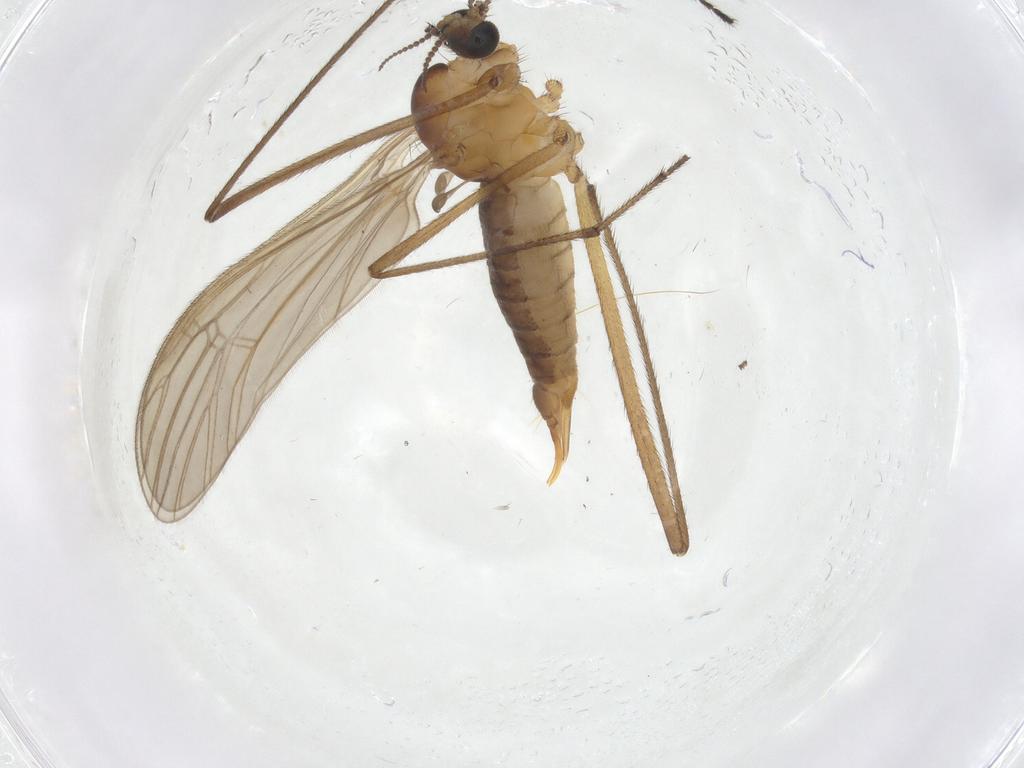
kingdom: Animalia
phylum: Arthropoda
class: Insecta
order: Diptera
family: Limoniidae
